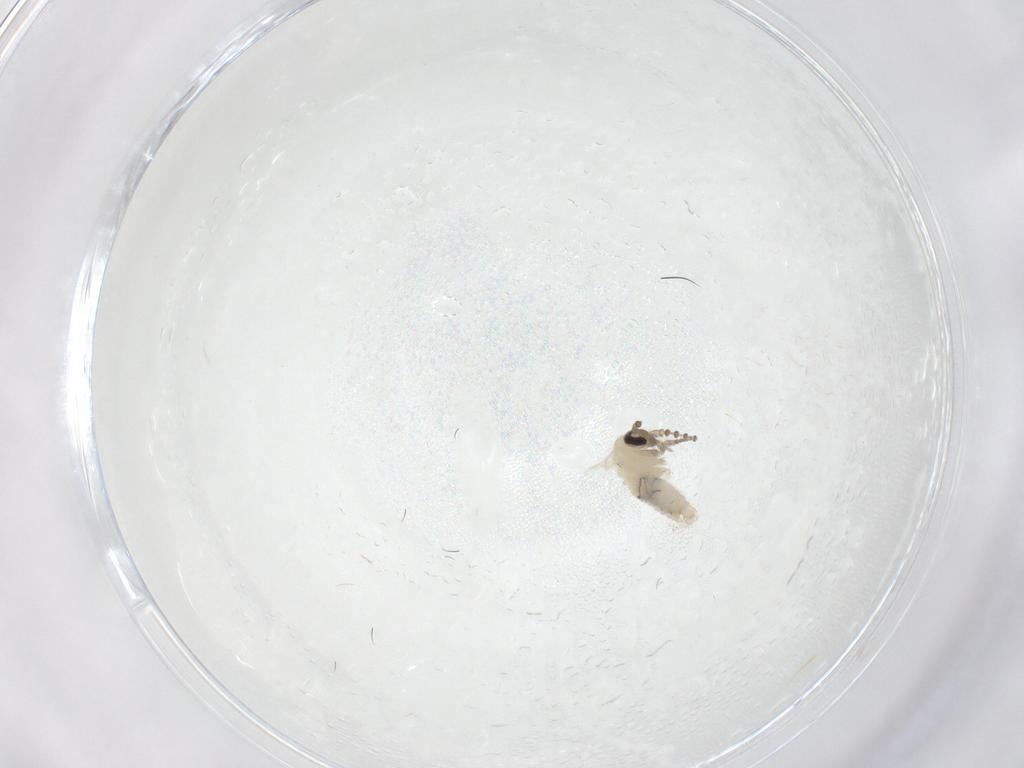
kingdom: Animalia
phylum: Arthropoda
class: Insecta
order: Diptera
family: Psychodidae
